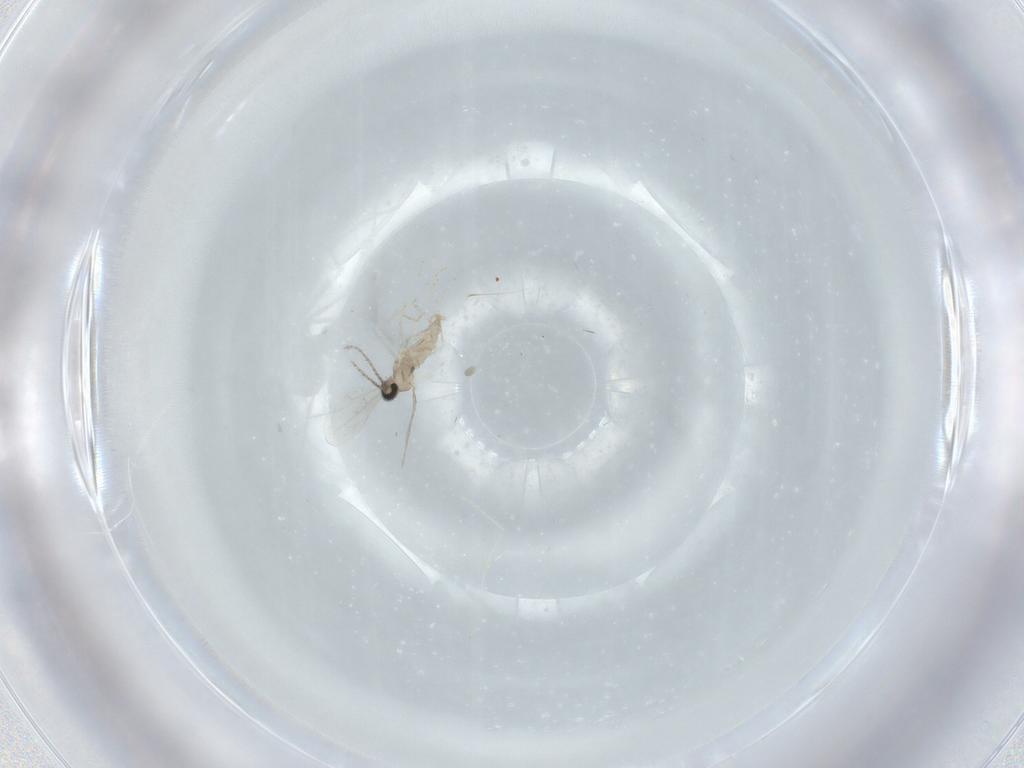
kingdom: Animalia
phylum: Arthropoda
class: Insecta
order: Diptera
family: Cecidomyiidae
